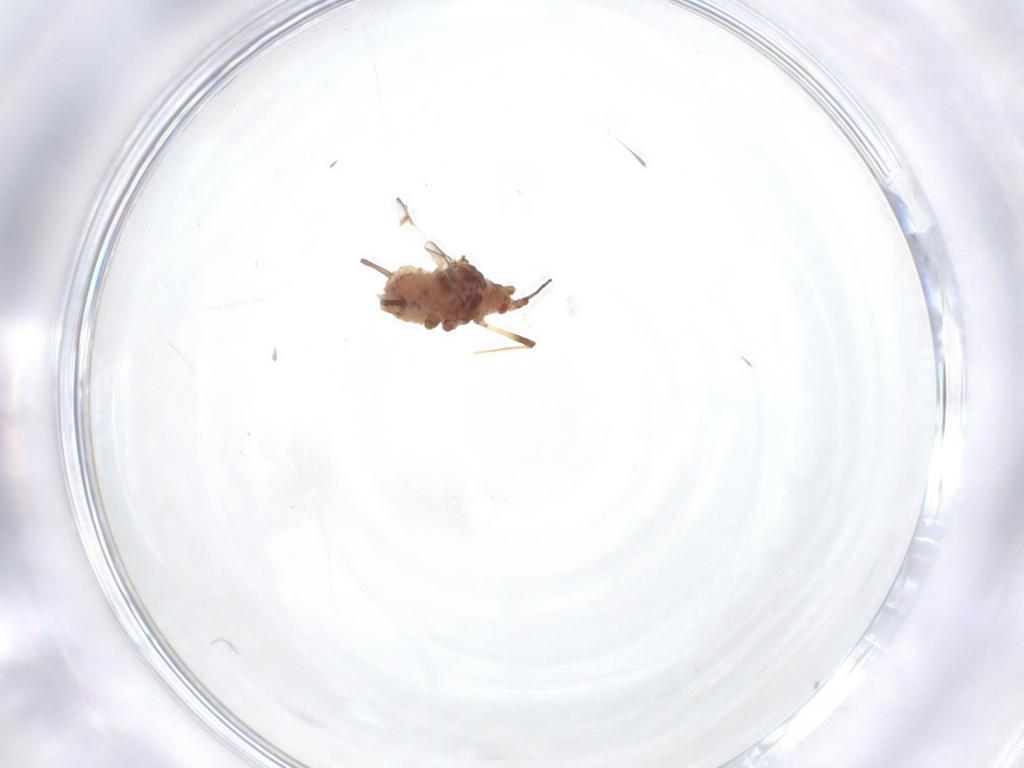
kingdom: Animalia
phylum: Arthropoda
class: Insecta
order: Hemiptera
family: Aphididae
